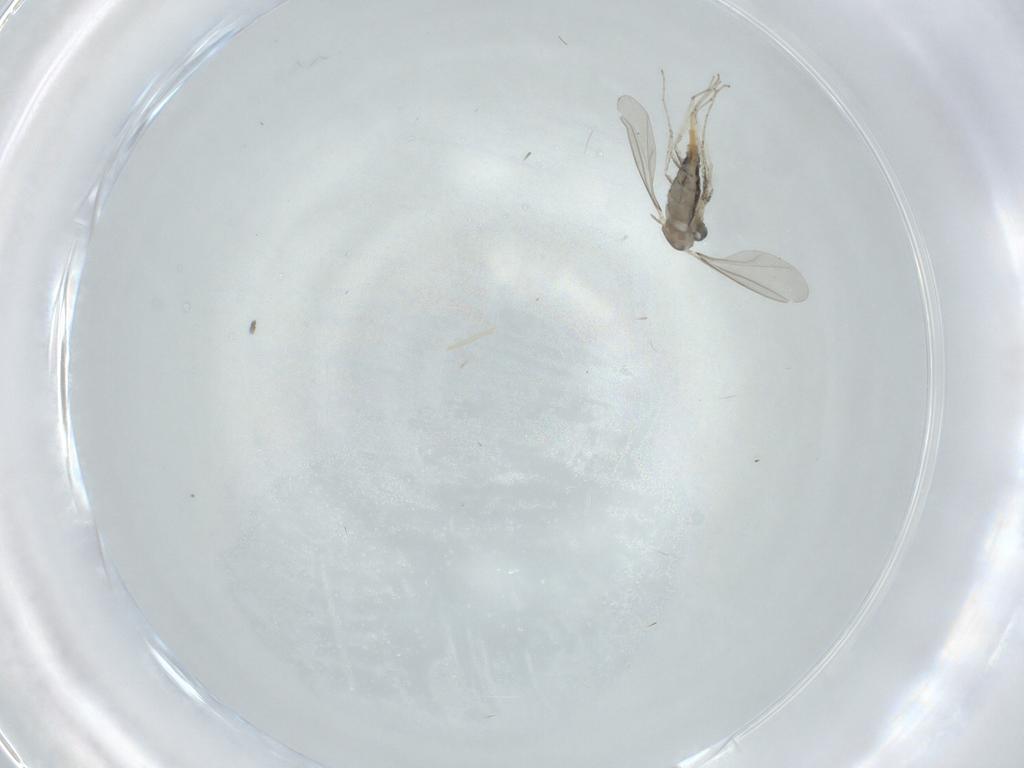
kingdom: Animalia
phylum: Arthropoda
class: Insecta
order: Diptera
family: Cecidomyiidae
